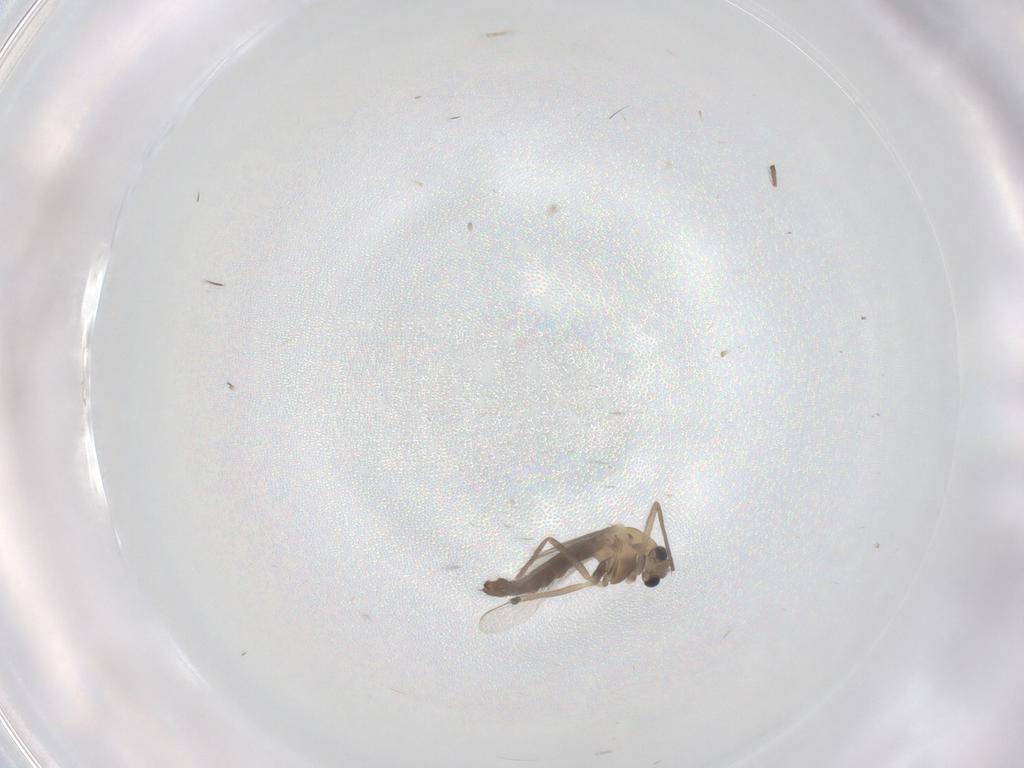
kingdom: Animalia
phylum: Arthropoda
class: Insecta
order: Diptera
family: Chironomidae
